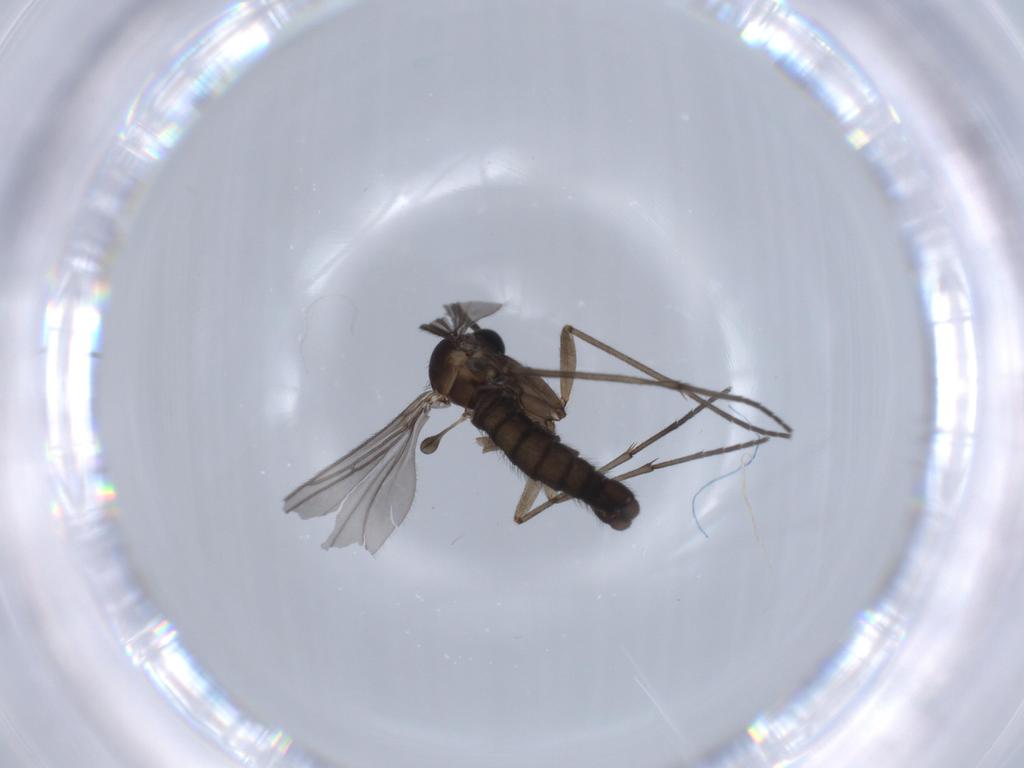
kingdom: Animalia
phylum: Arthropoda
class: Insecta
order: Diptera
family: Sciaridae
